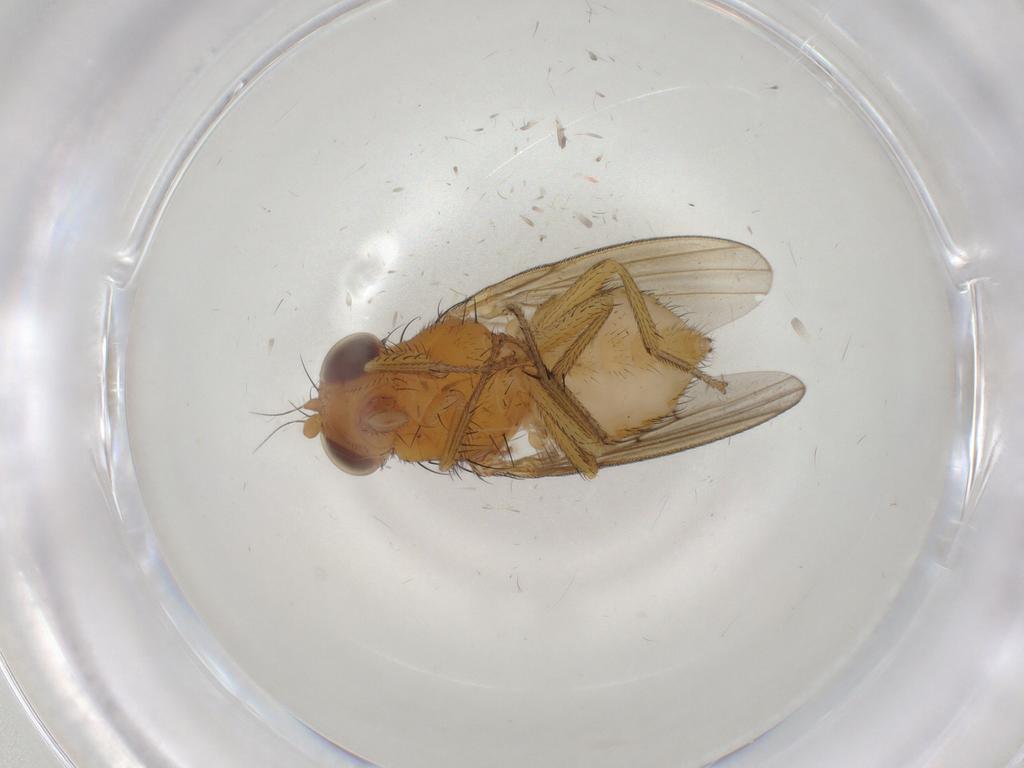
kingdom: Animalia
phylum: Arthropoda
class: Insecta
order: Diptera
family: Cecidomyiidae
